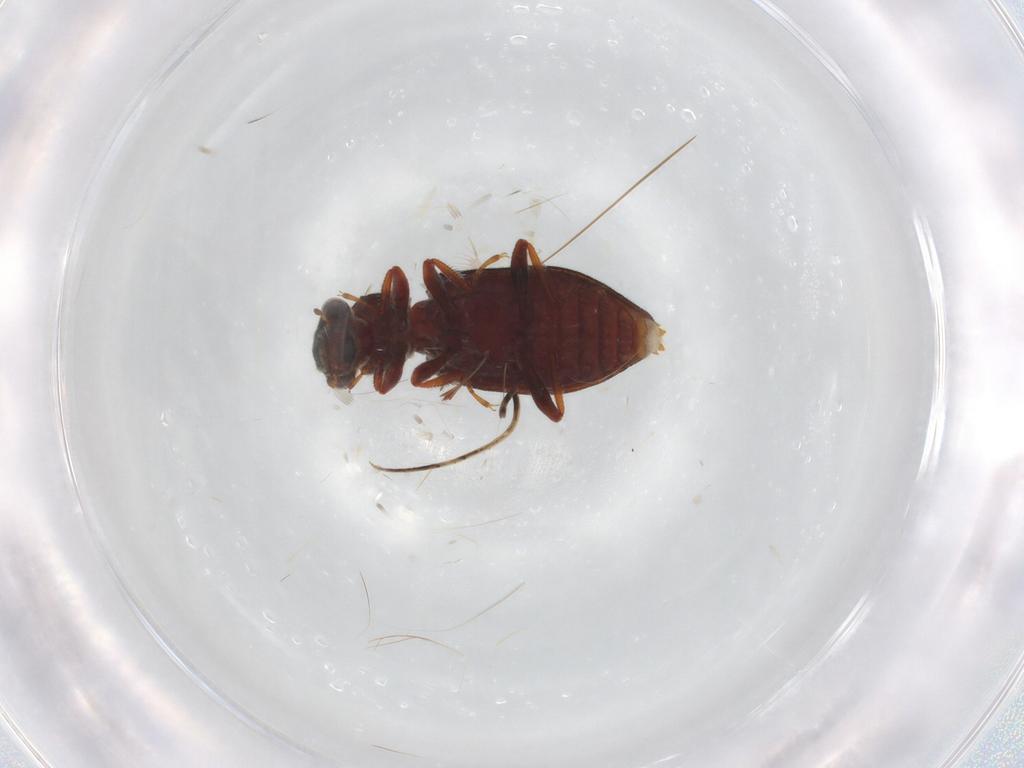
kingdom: Animalia
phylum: Arthropoda
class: Insecta
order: Coleoptera
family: Hydrophilidae
